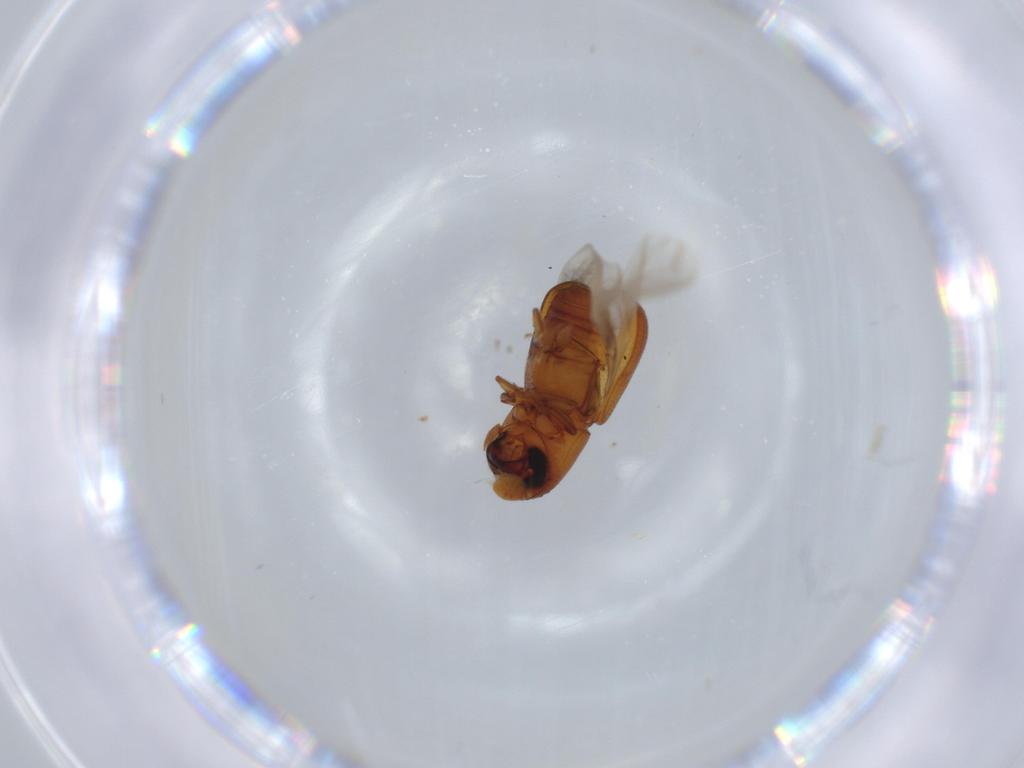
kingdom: Animalia
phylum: Arthropoda
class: Insecta
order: Coleoptera
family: Curculionidae
